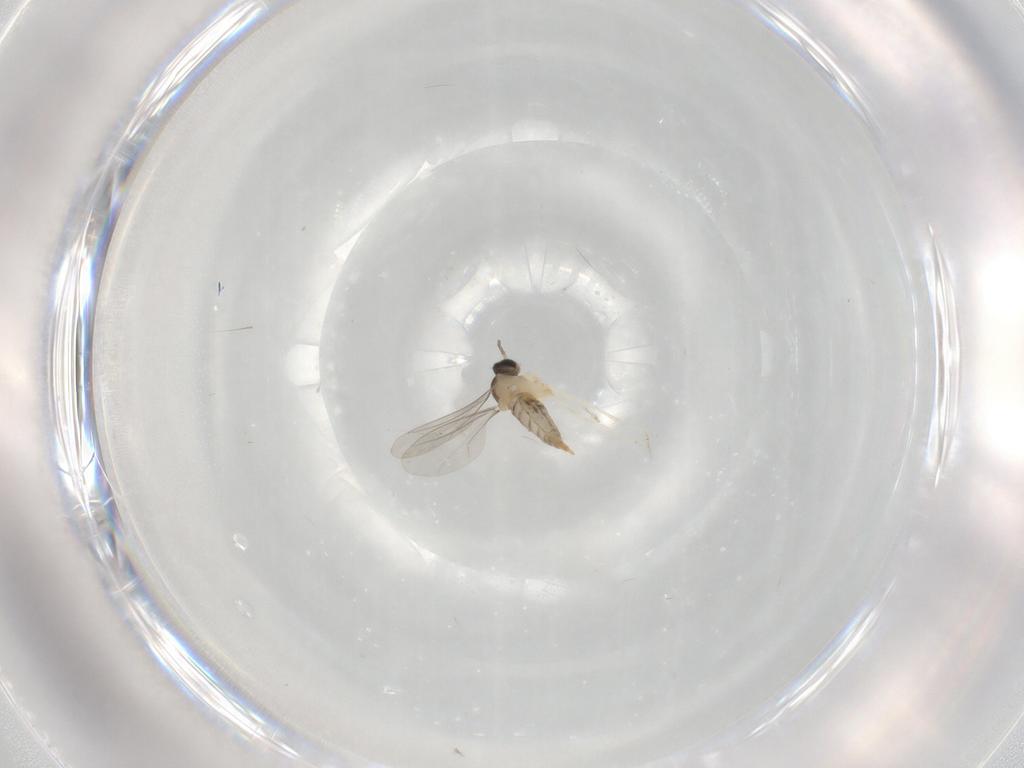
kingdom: Animalia
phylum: Arthropoda
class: Insecta
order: Diptera
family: Cecidomyiidae
